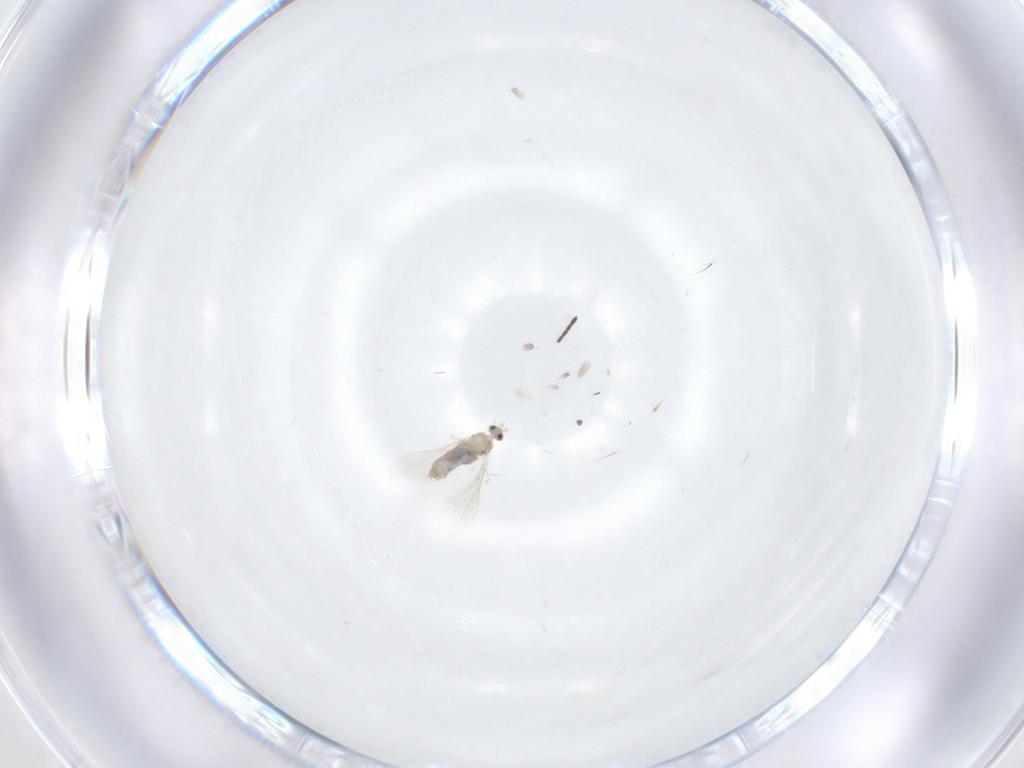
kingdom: Animalia
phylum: Arthropoda
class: Insecta
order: Diptera
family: Cecidomyiidae
